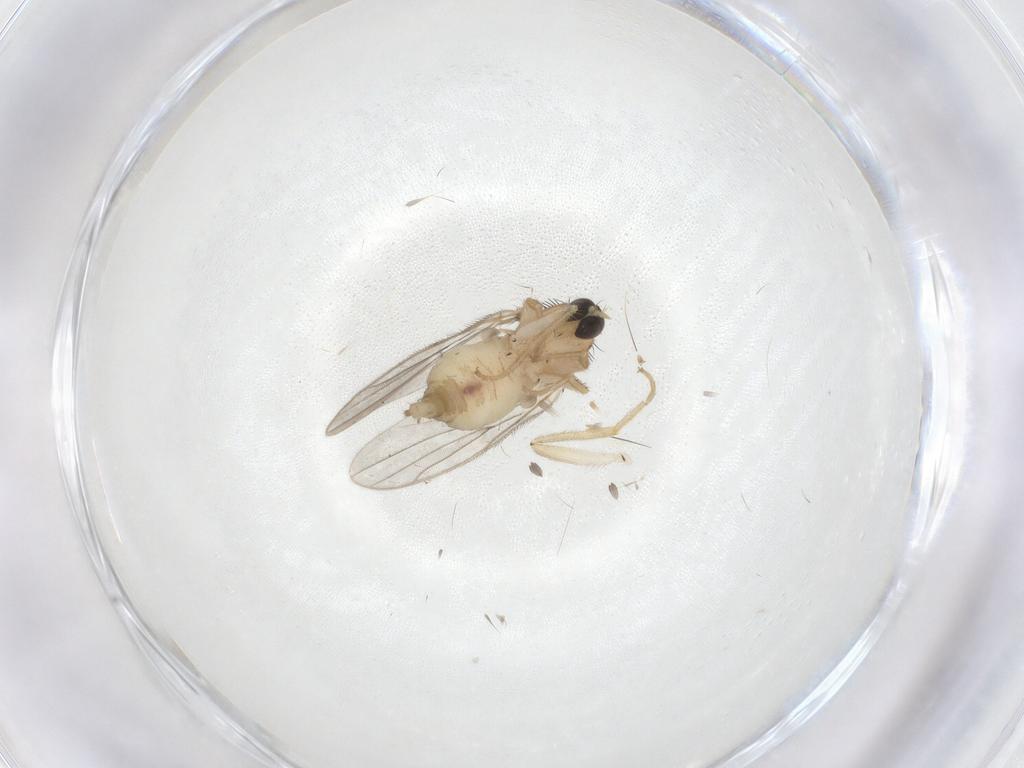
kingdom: Animalia
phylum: Arthropoda
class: Insecta
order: Diptera
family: Hybotidae
